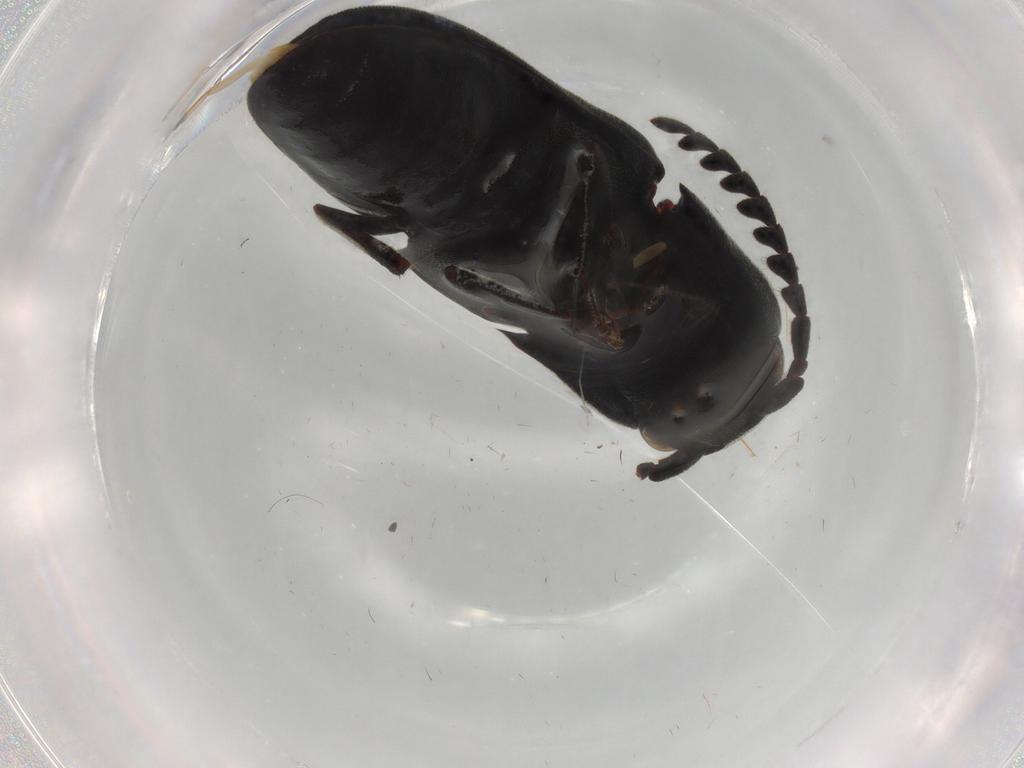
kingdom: Animalia
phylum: Arthropoda
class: Insecta
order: Coleoptera
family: Eucnemidae
